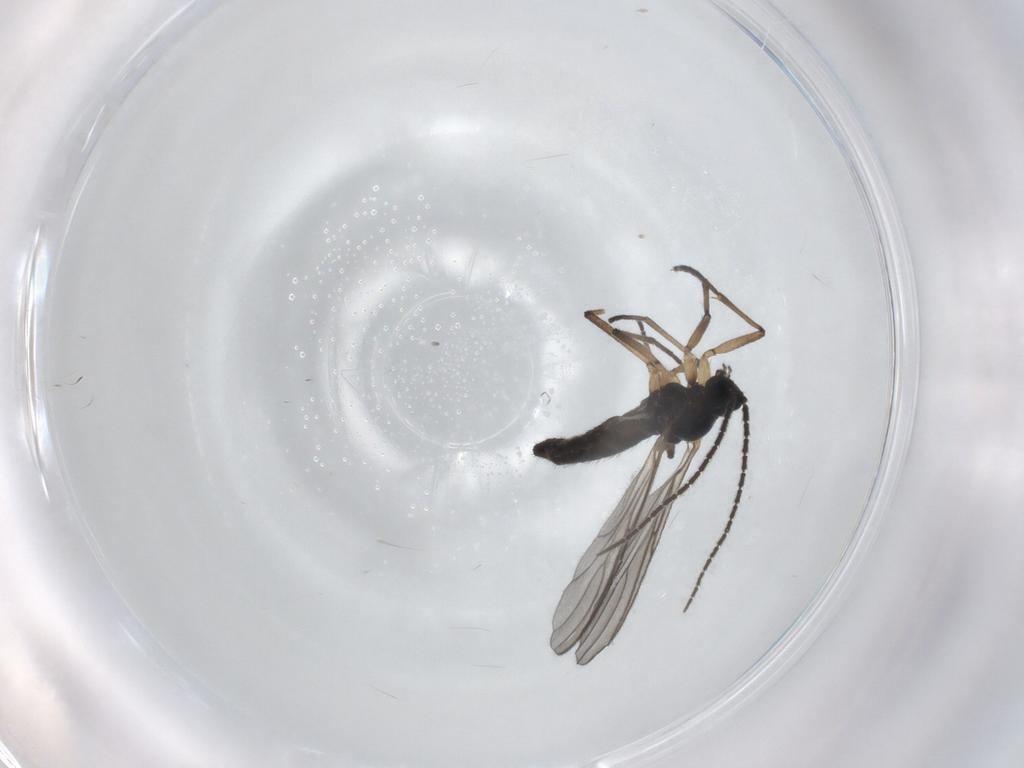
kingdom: Animalia
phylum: Arthropoda
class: Insecta
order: Diptera
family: Sciaridae
